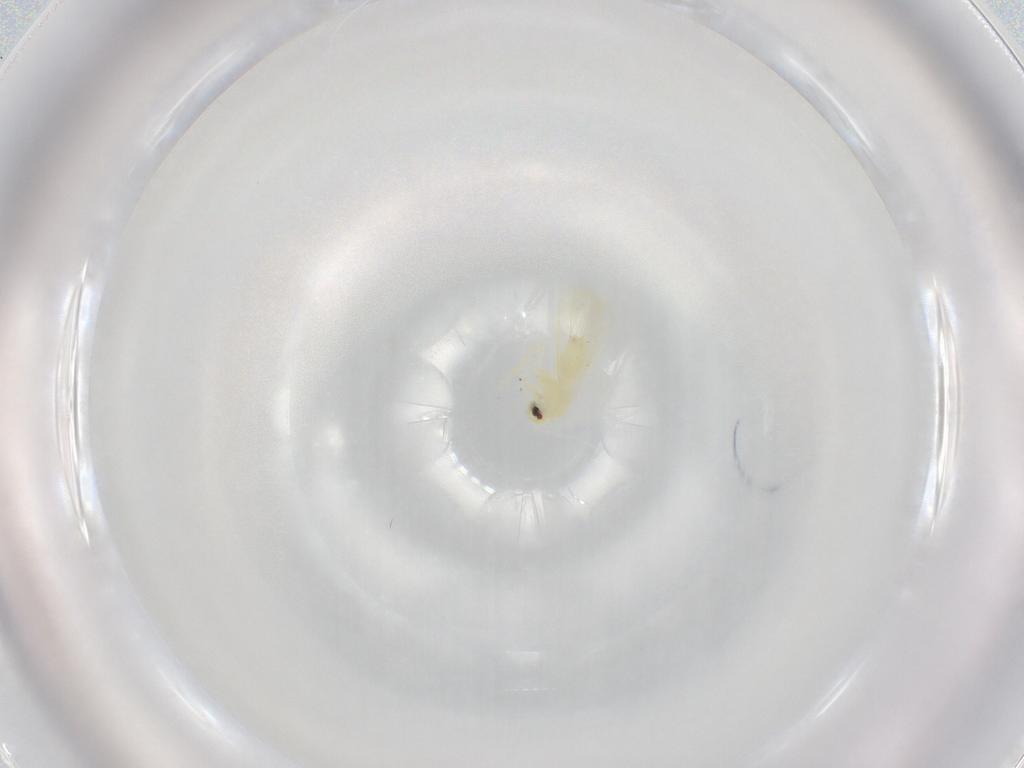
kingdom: Animalia
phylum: Arthropoda
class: Insecta
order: Hemiptera
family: Aleyrodidae
